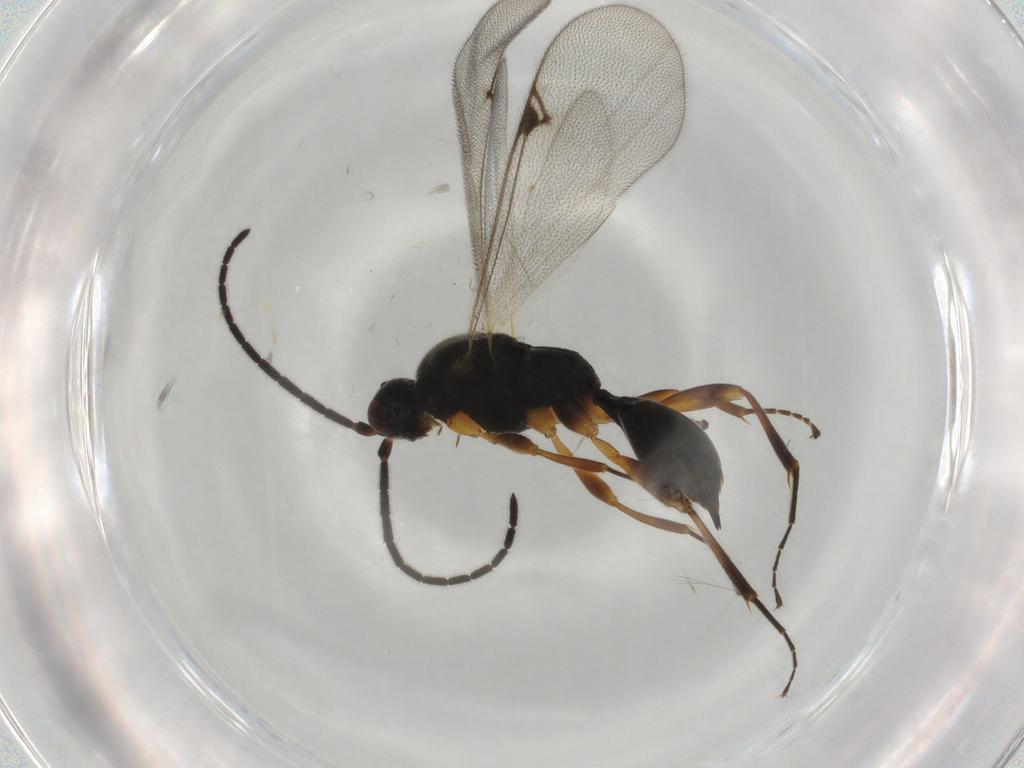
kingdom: Animalia
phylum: Arthropoda
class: Insecta
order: Hymenoptera
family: Proctotrupidae
